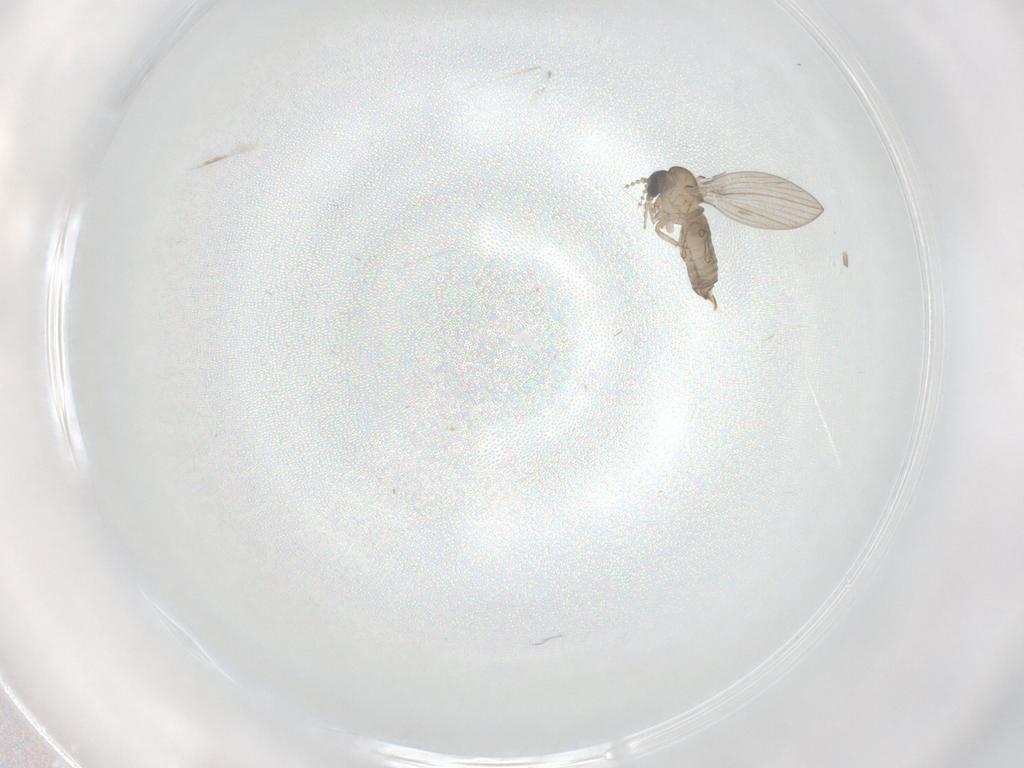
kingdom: Animalia
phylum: Arthropoda
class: Insecta
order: Diptera
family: Psychodidae
